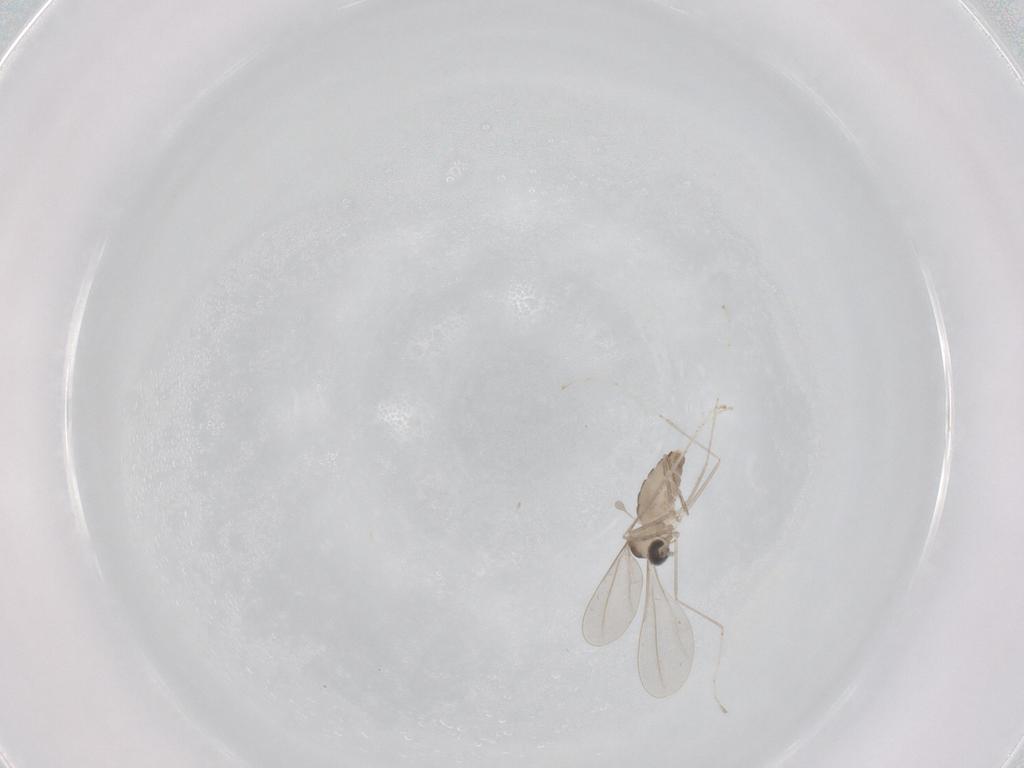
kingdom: Animalia
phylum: Arthropoda
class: Insecta
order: Diptera
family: Cecidomyiidae
